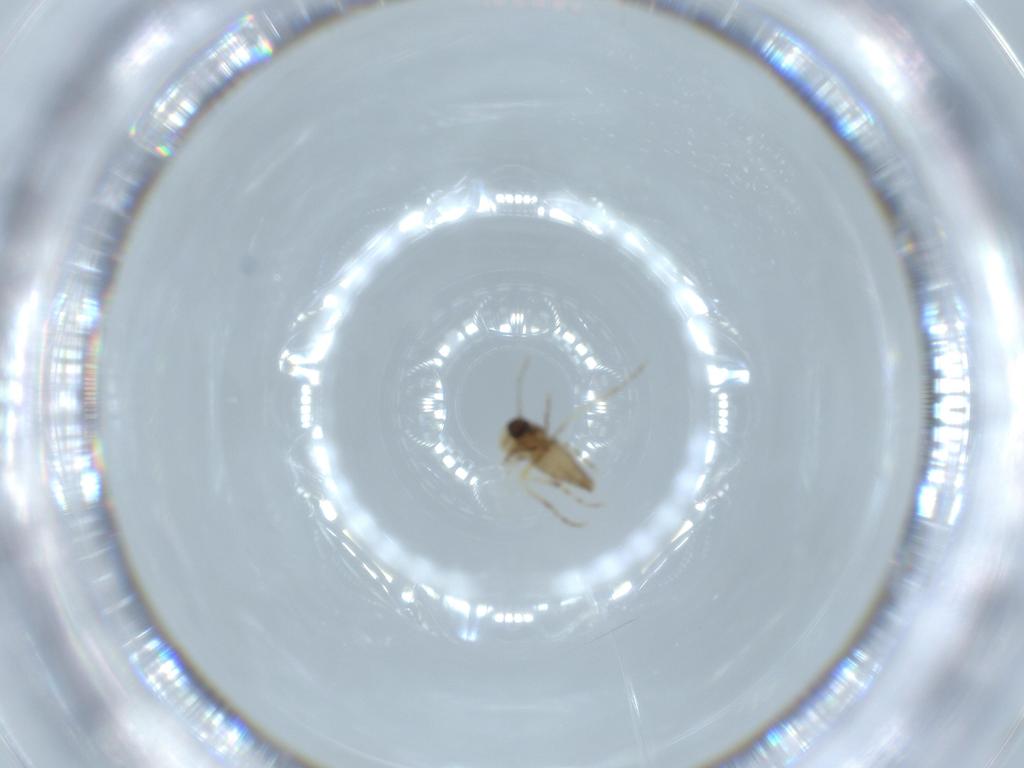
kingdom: Animalia
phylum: Arthropoda
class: Insecta
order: Diptera
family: Ceratopogonidae
